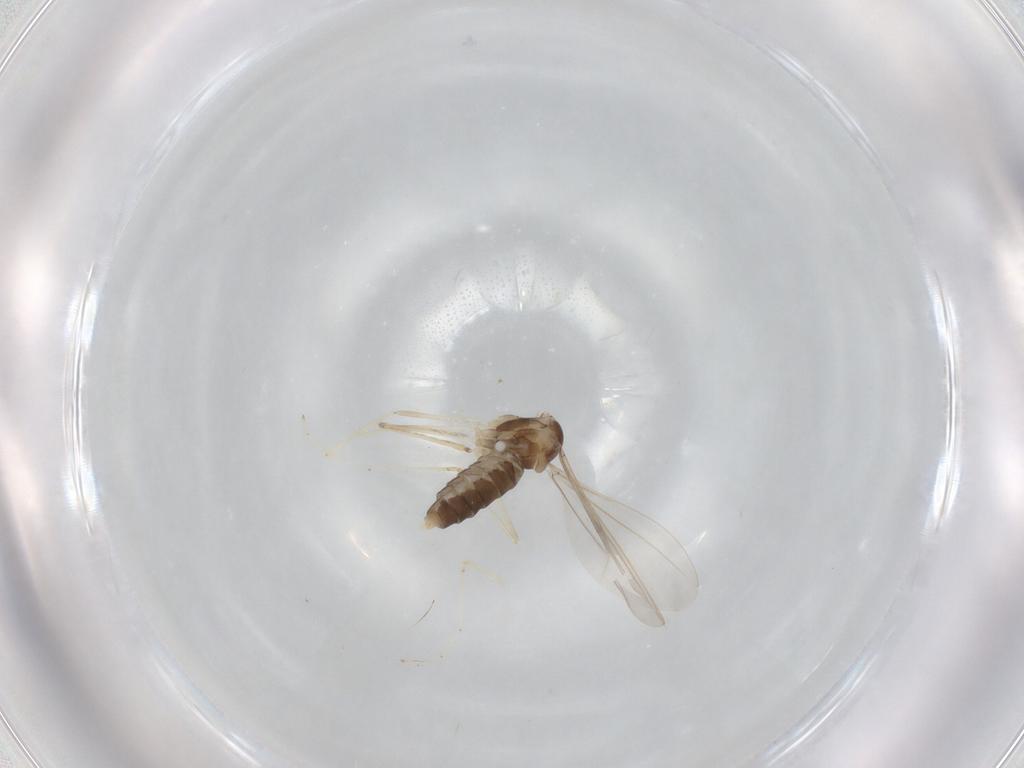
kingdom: Animalia
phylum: Arthropoda
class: Insecta
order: Diptera
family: Cecidomyiidae
